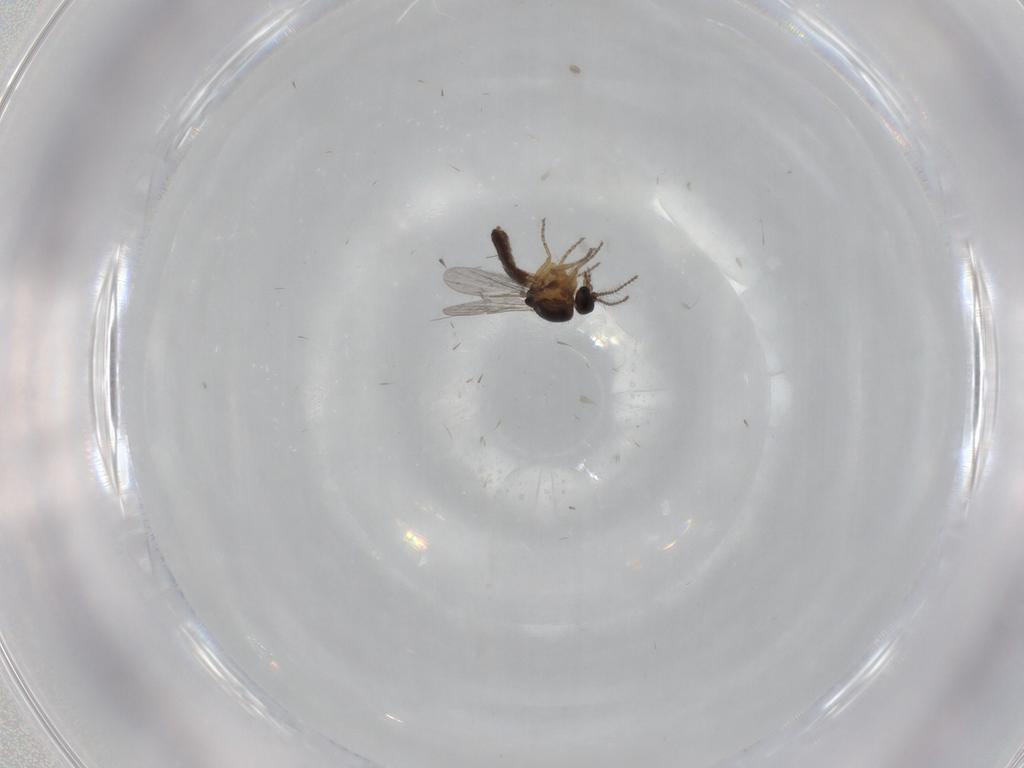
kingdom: Animalia
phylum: Arthropoda
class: Insecta
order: Diptera
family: Ceratopogonidae
